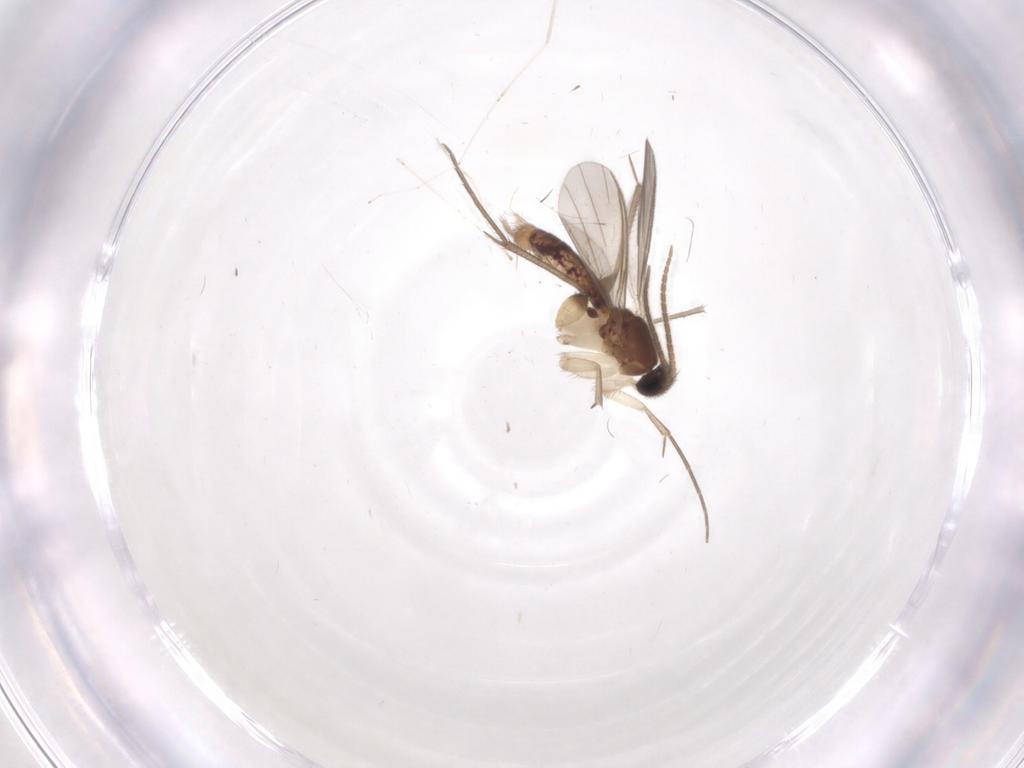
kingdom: Animalia
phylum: Arthropoda
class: Insecta
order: Diptera
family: Mycetophilidae
